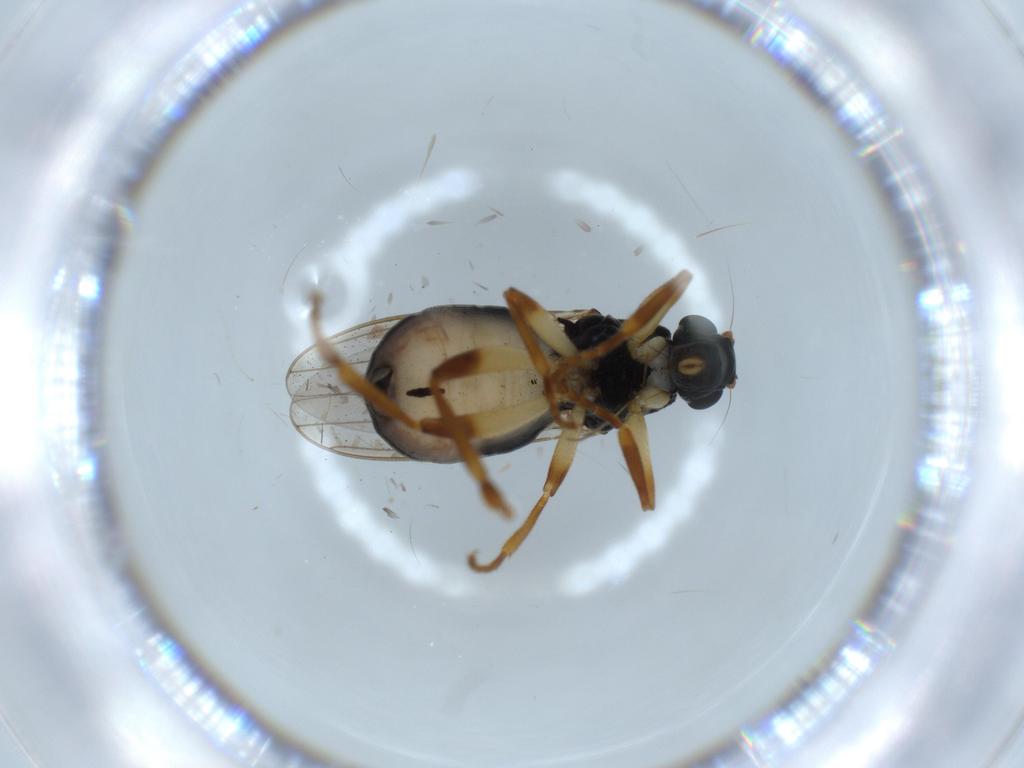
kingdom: Animalia
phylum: Arthropoda
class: Insecta
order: Diptera
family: Sphaeroceridae
